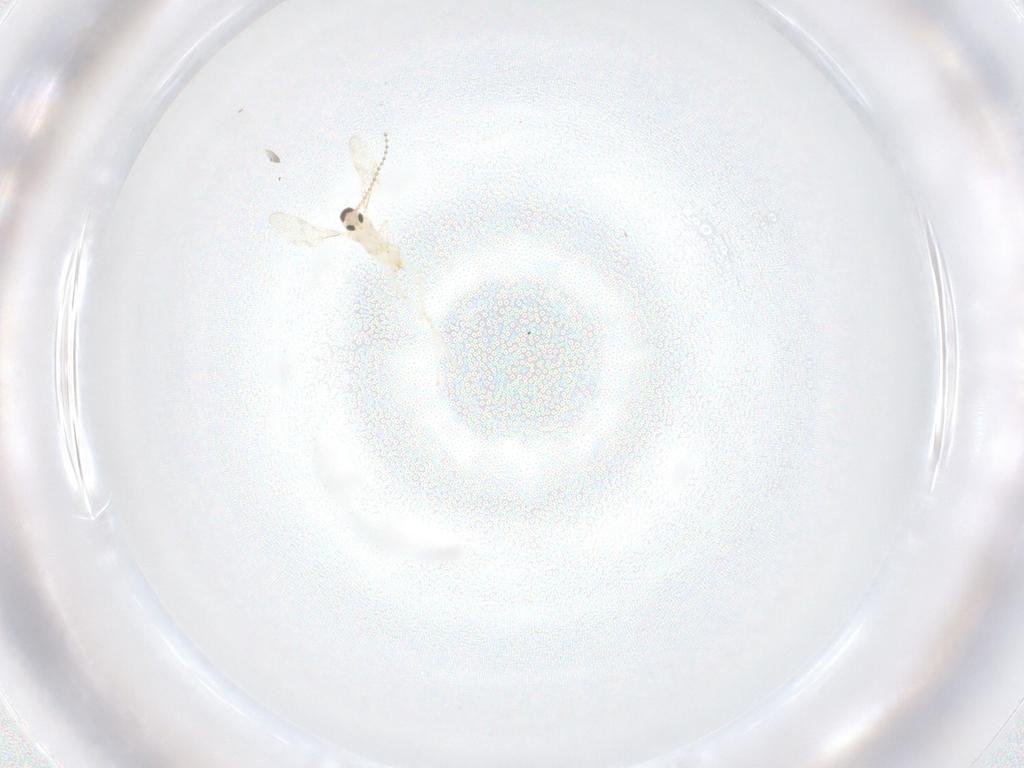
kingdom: Animalia
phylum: Arthropoda
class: Insecta
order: Diptera
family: Cecidomyiidae
